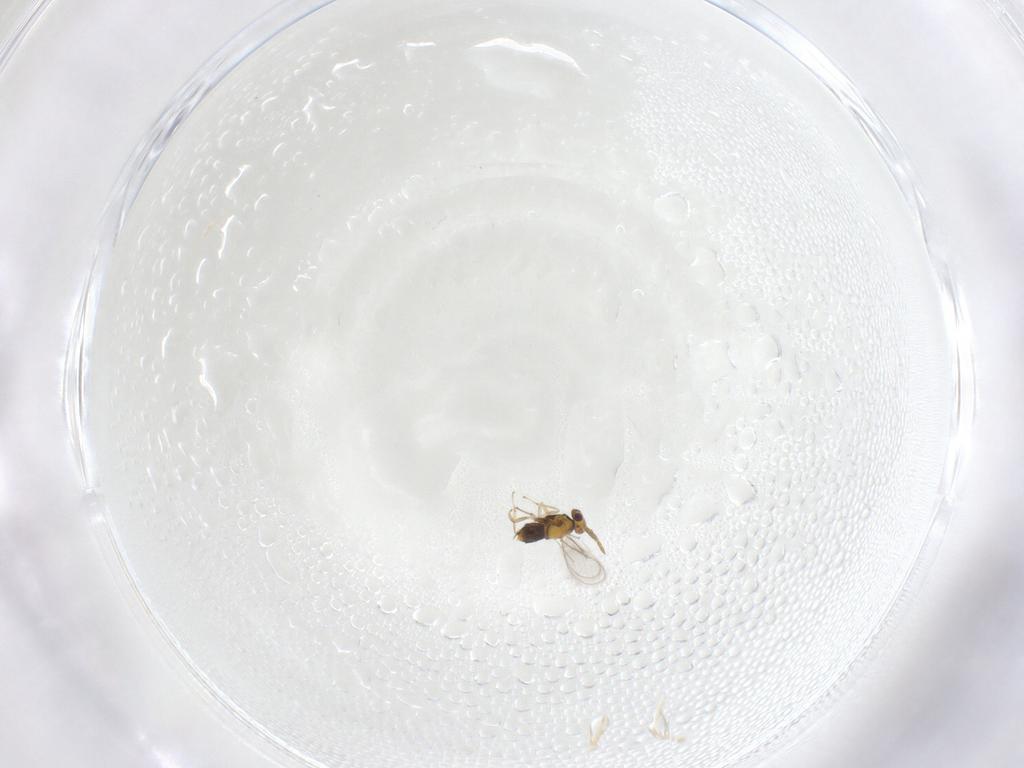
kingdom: Animalia
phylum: Arthropoda
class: Insecta
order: Hymenoptera
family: Aphelinidae
